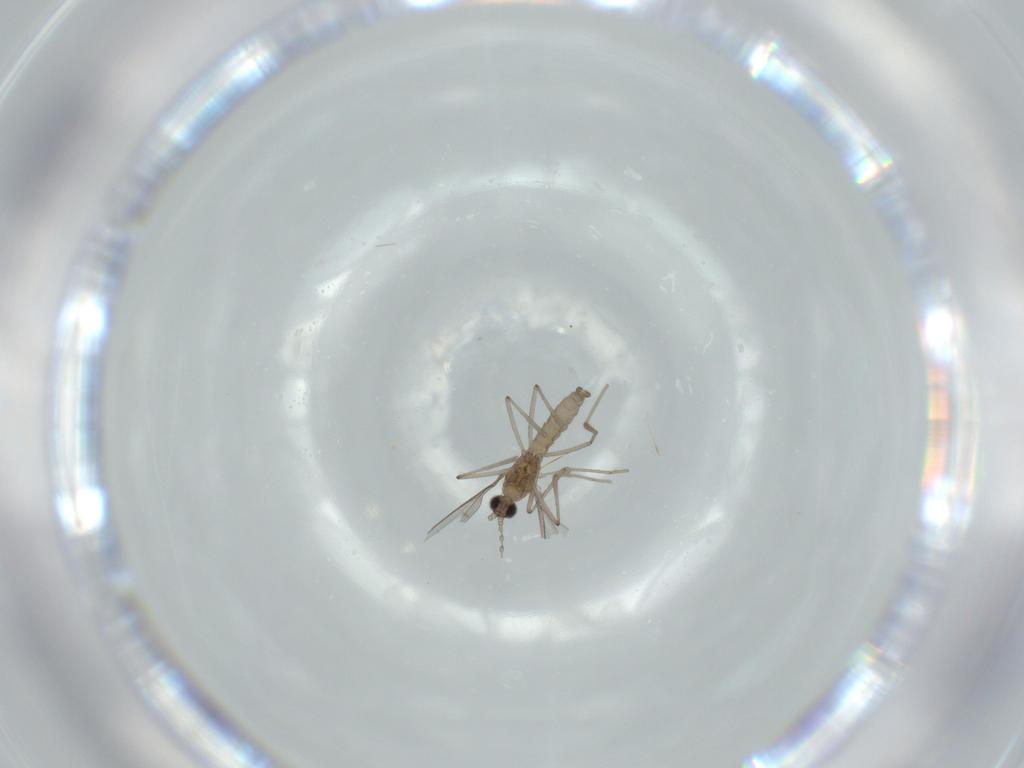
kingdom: Animalia
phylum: Arthropoda
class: Insecta
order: Diptera
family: Cecidomyiidae
